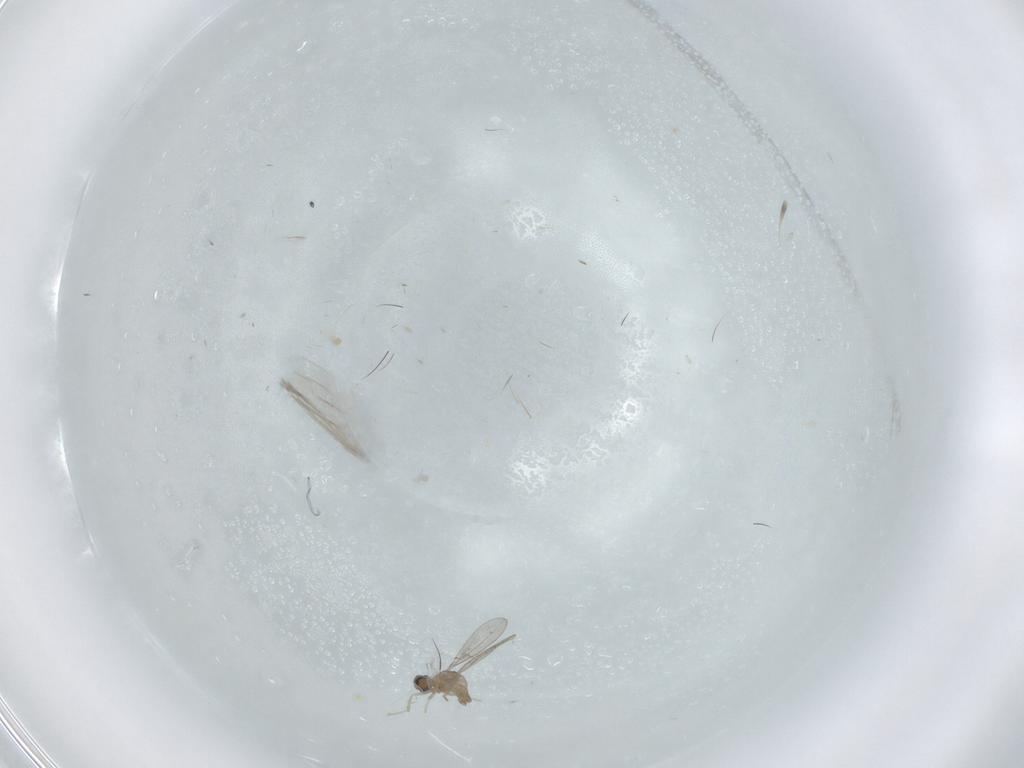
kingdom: Animalia
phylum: Arthropoda
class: Insecta
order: Diptera
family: Cecidomyiidae
